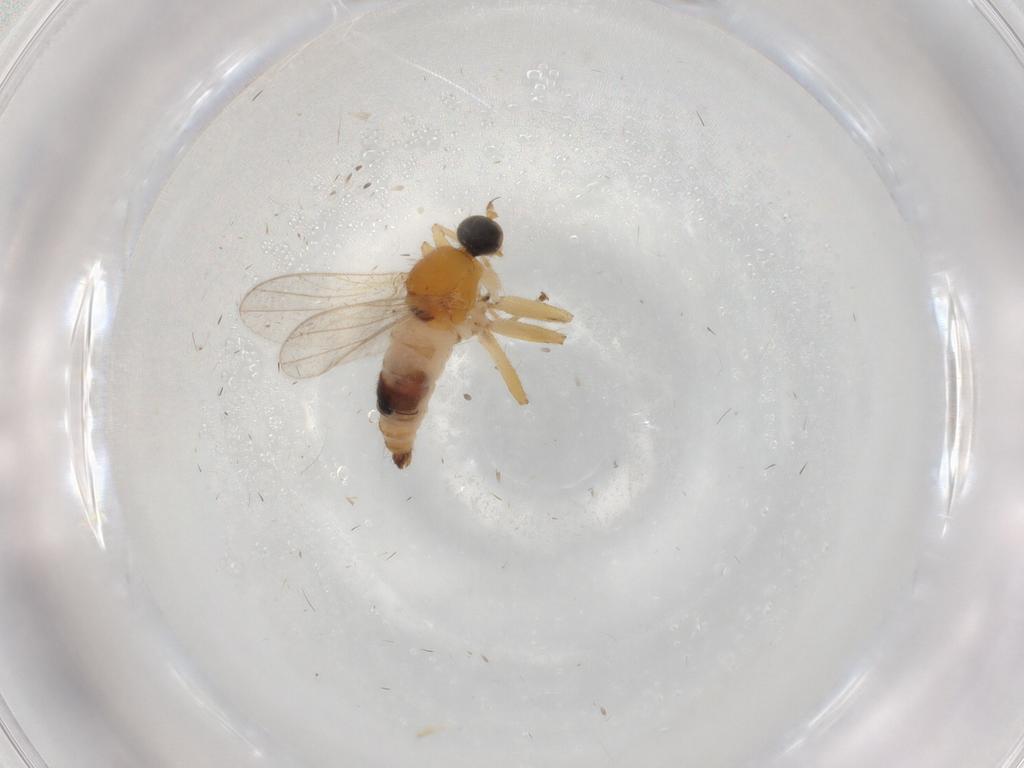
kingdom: Animalia
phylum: Arthropoda
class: Insecta
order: Diptera
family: Hybotidae
